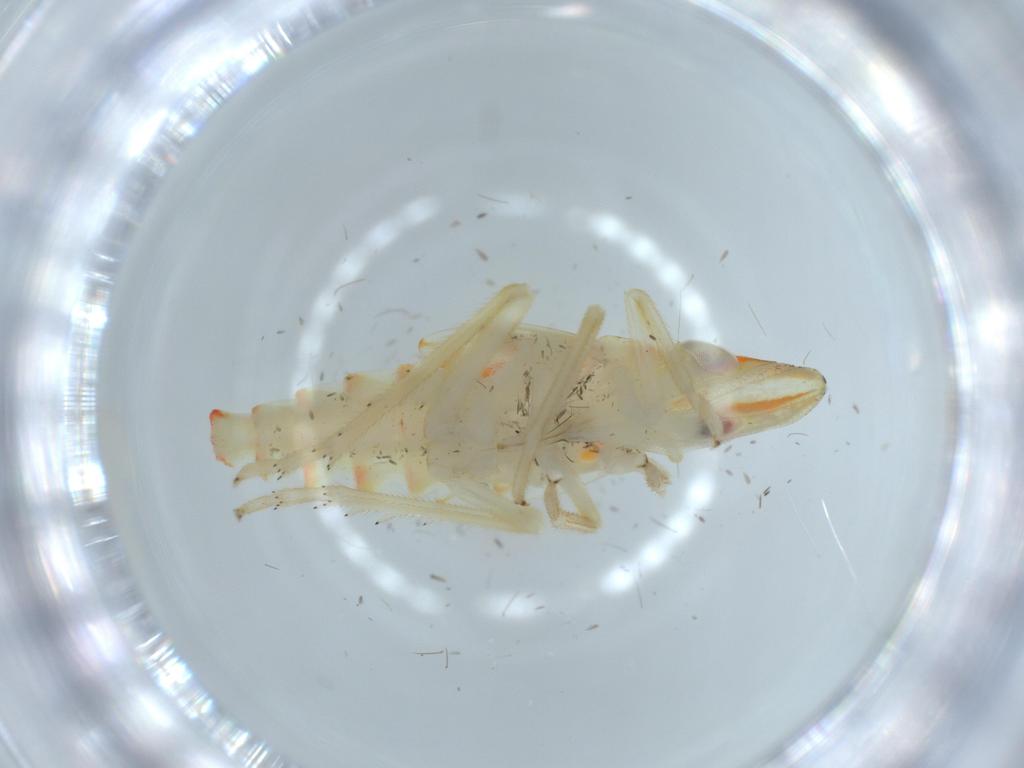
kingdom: Animalia
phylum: Arthropoda
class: Insecta
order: Hemiptera
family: Tropiduchidae
